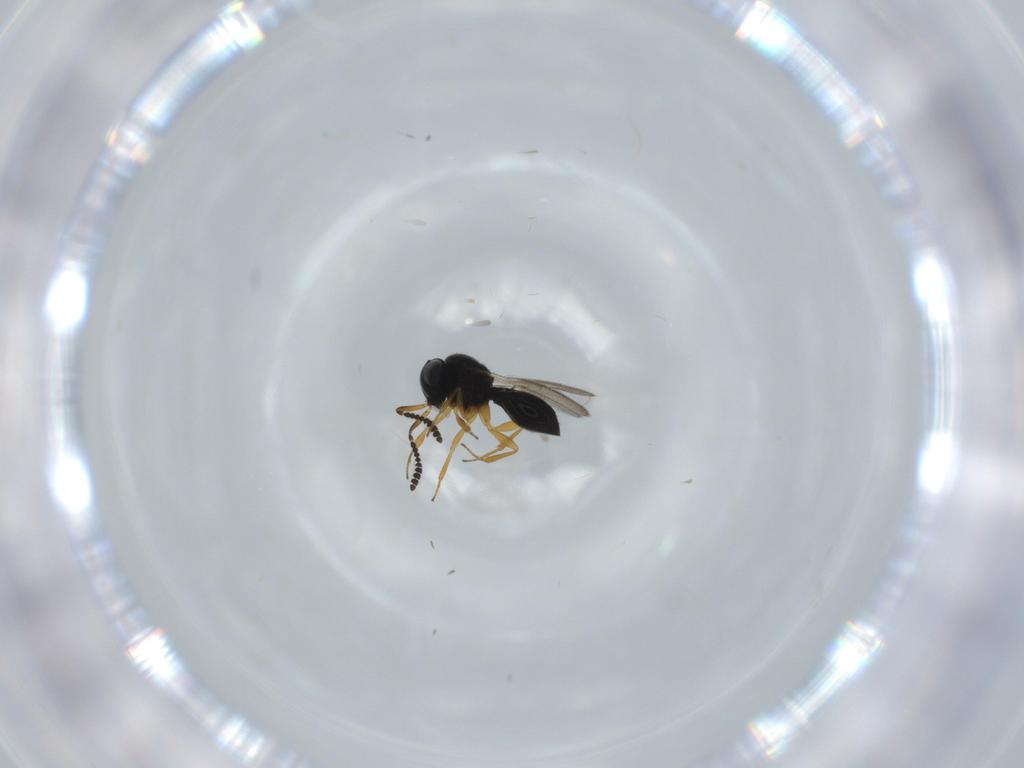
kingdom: Animalia
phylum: Arthropoda
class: Insecta
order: Hymenoptera
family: Scelionidae
